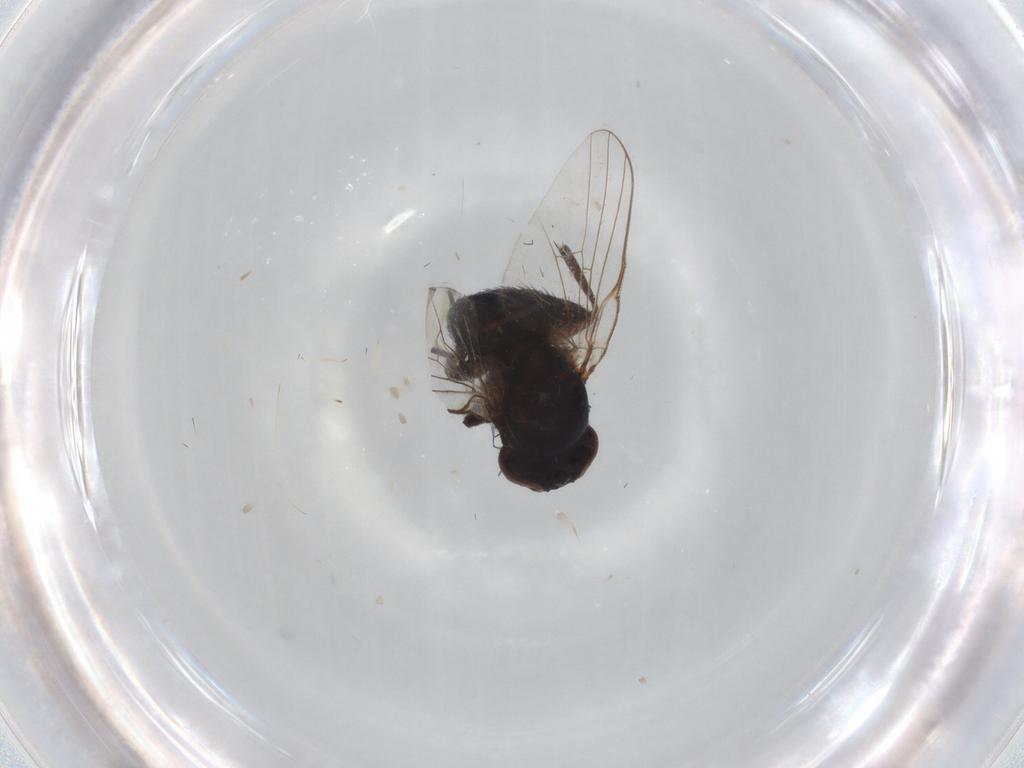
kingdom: Animalia
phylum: Arthropoda
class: Insecta
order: Diptera
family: Agromyzidae
